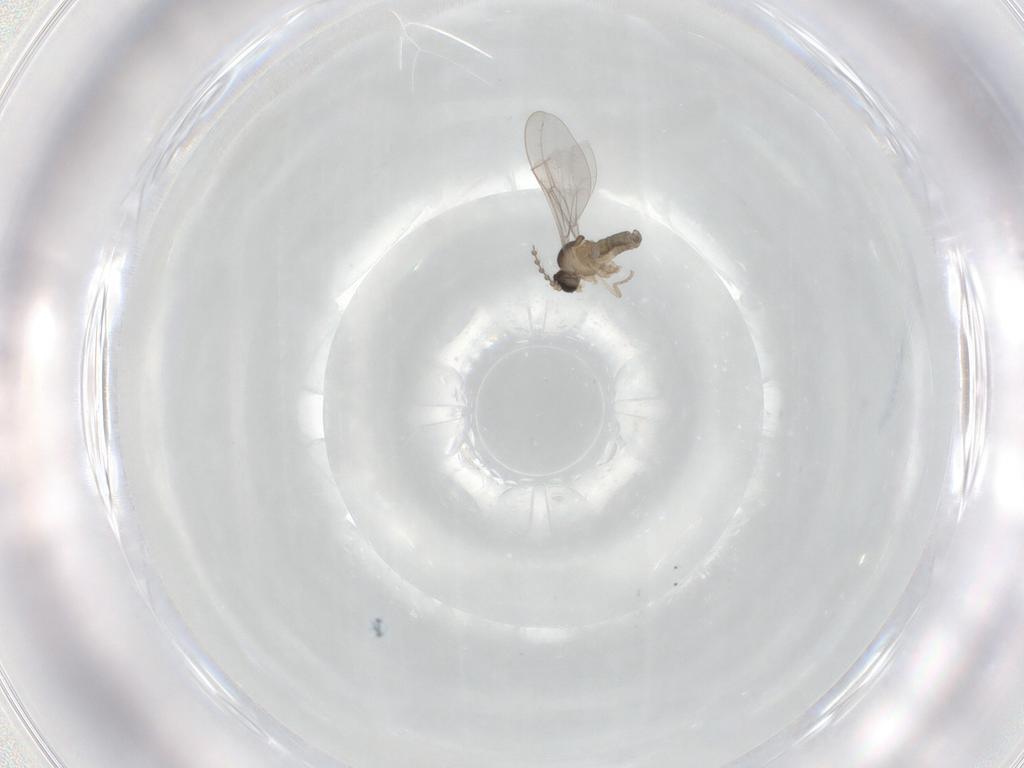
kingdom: Animalia
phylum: Arthropoda
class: Insecta
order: Diptera
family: Cecidomyiidae
